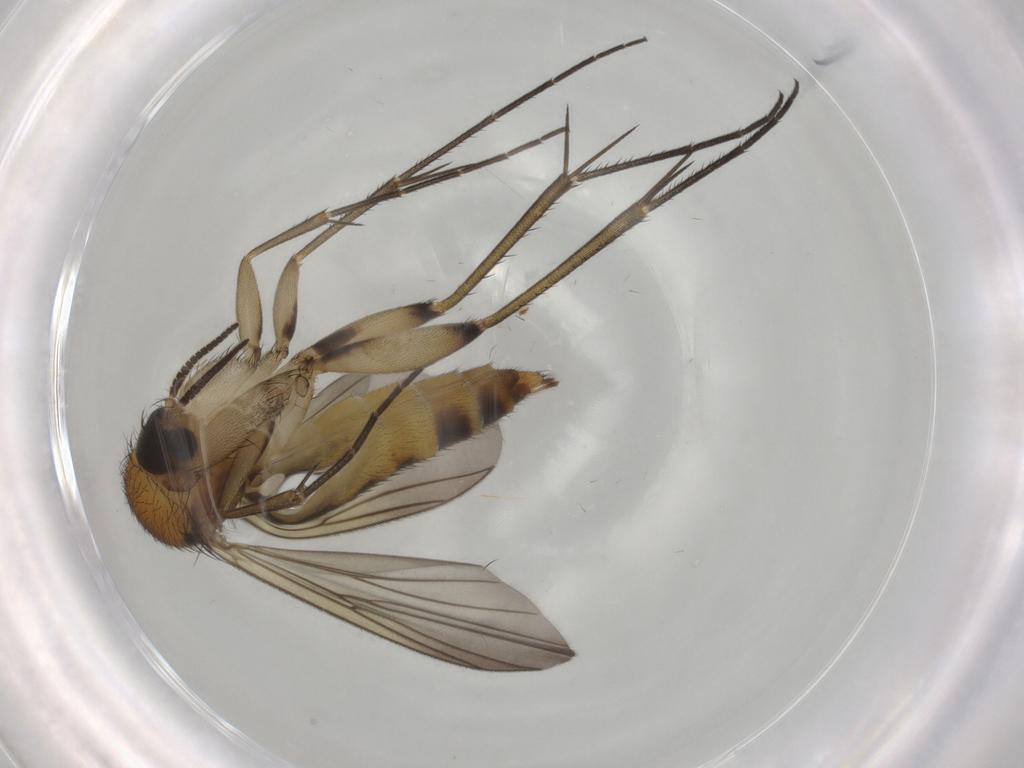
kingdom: Animalia
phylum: Arthropoda
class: Insecta
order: Diptera
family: Mycetophilidae
